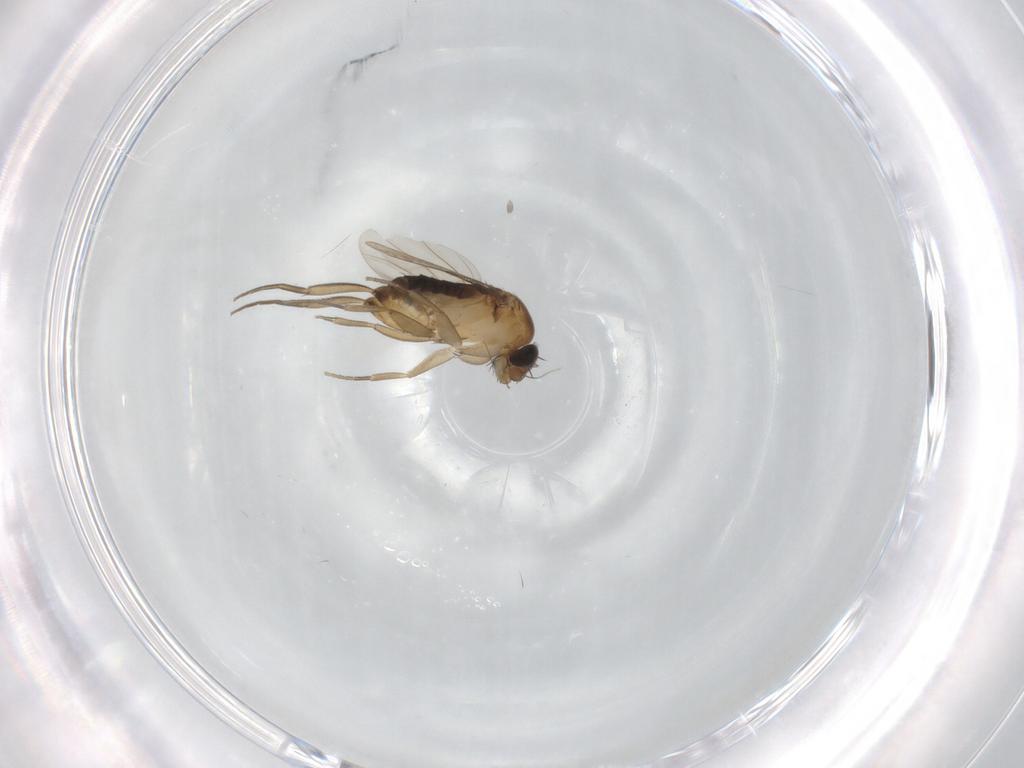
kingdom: Animalia
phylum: Arthropoda
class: Insecta
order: Diptera
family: Phoridae
